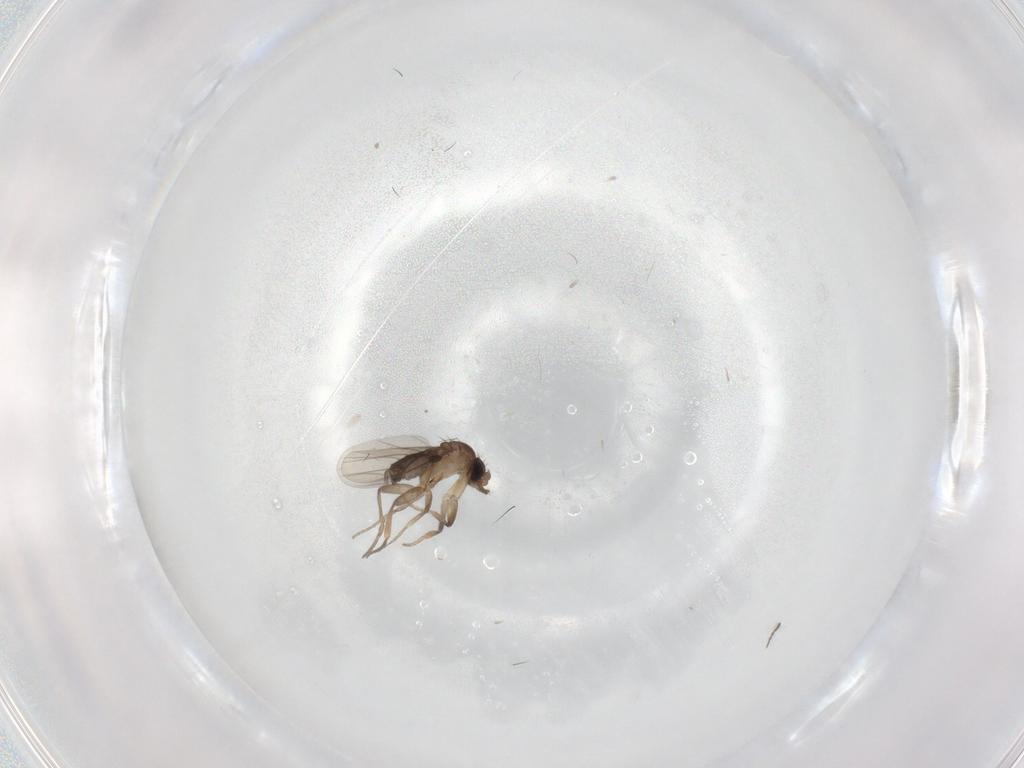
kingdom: Animalia
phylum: Arthropoda
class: Insecta
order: Diptera
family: Phoridae
